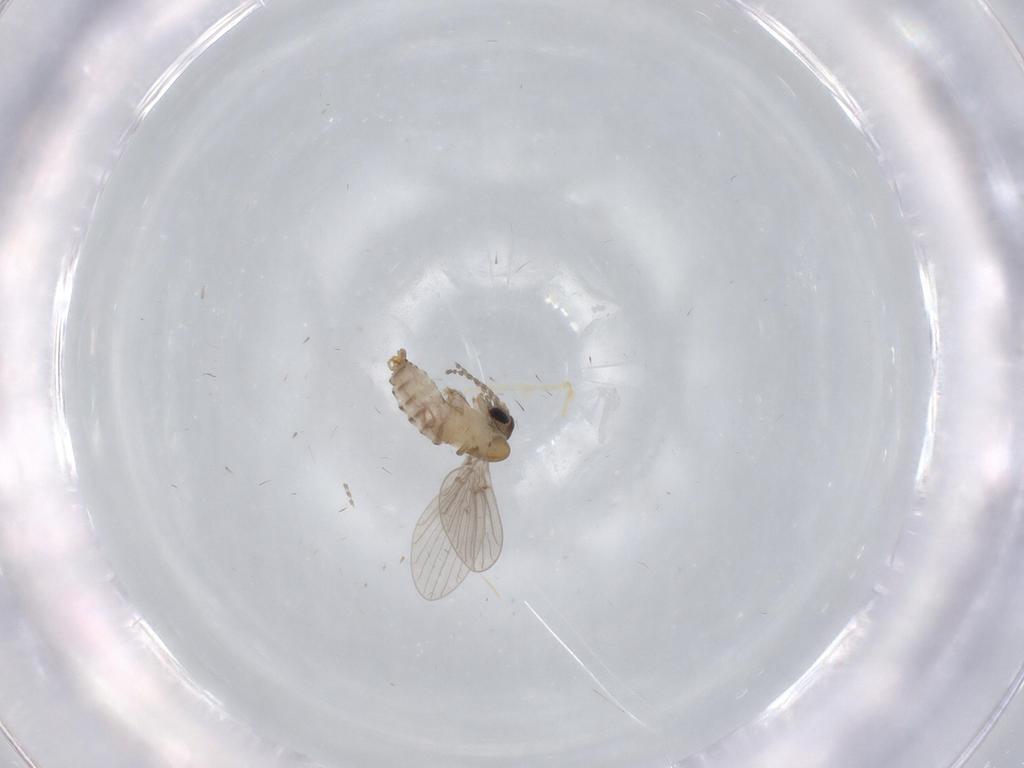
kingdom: Animalia
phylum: Arthropoda
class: Insecta
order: Diptera
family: Psychodidae
